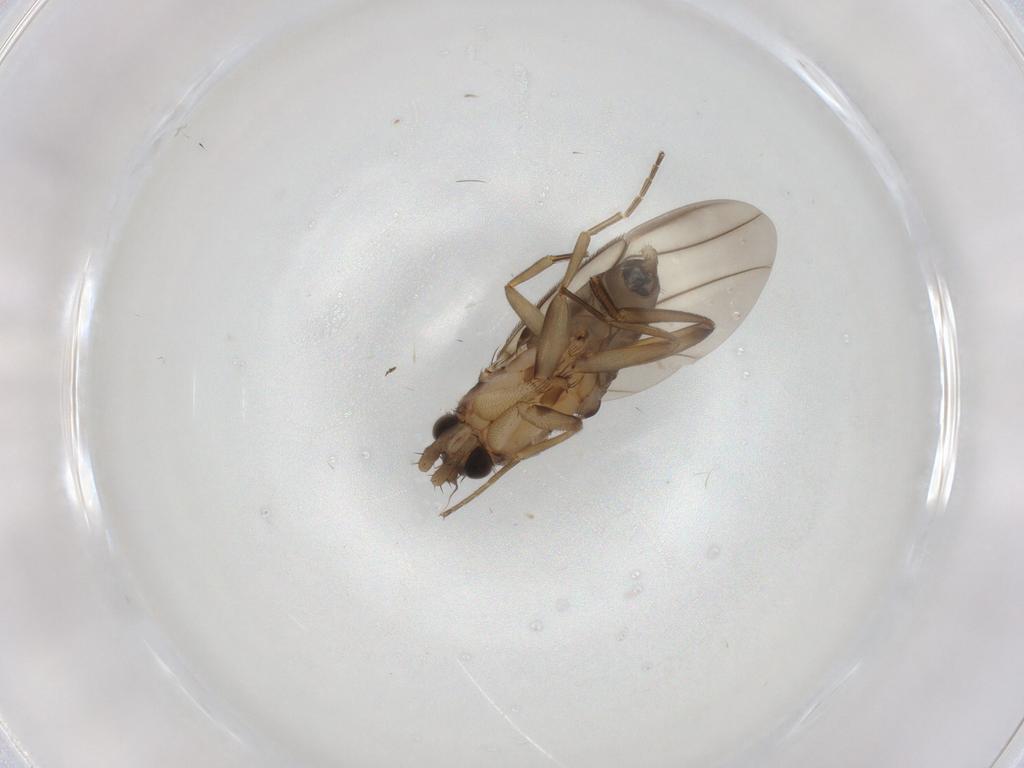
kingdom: Animalia
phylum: Arthropoda
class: Insecta
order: Diptera
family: Phoridae
